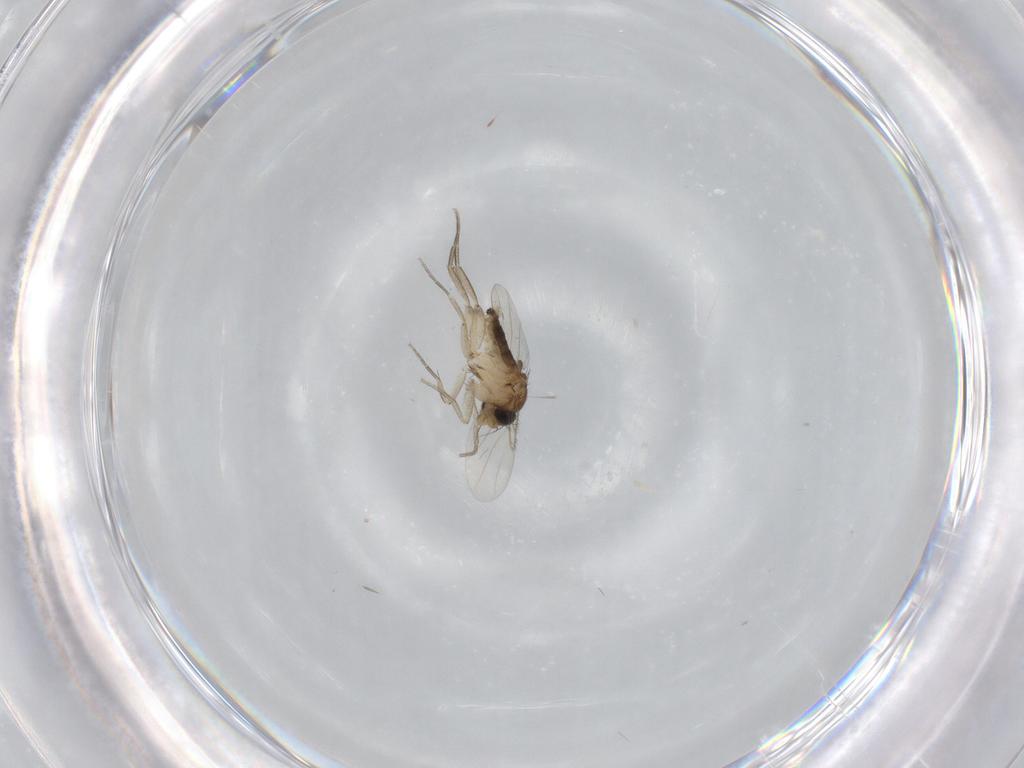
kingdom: Animalia
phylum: Arthropoda
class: Insecta
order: Diptera
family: Phoridae
